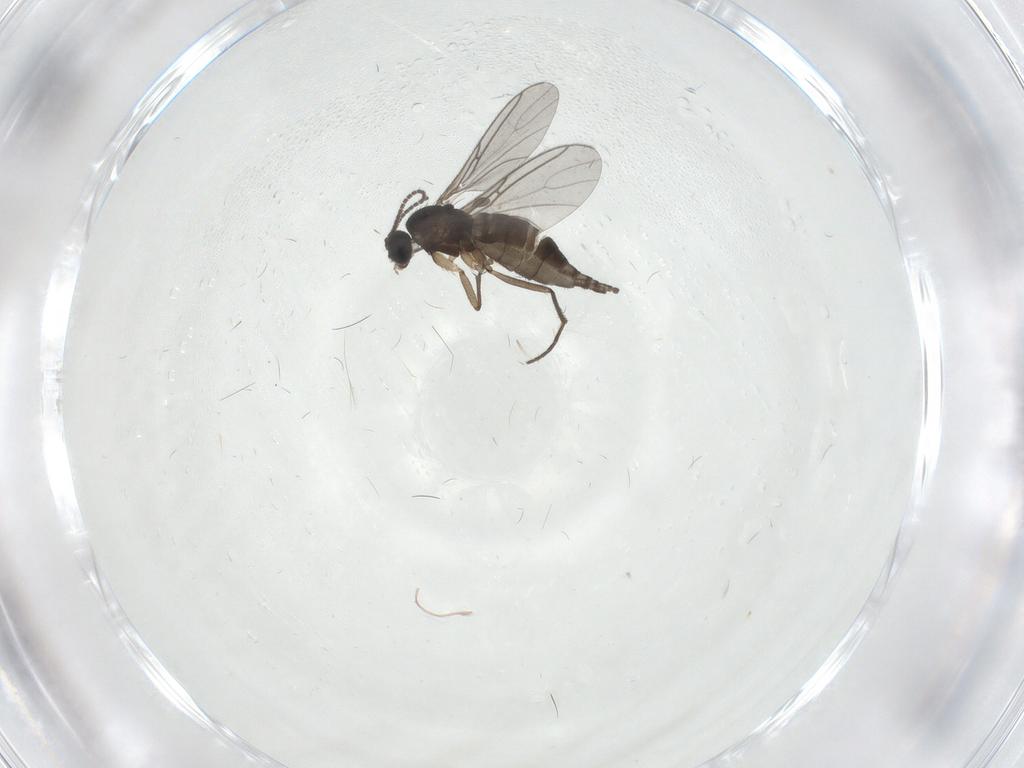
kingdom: Animalia
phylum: Arthropoda
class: Insecta
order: Diptera
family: Sciaridae
